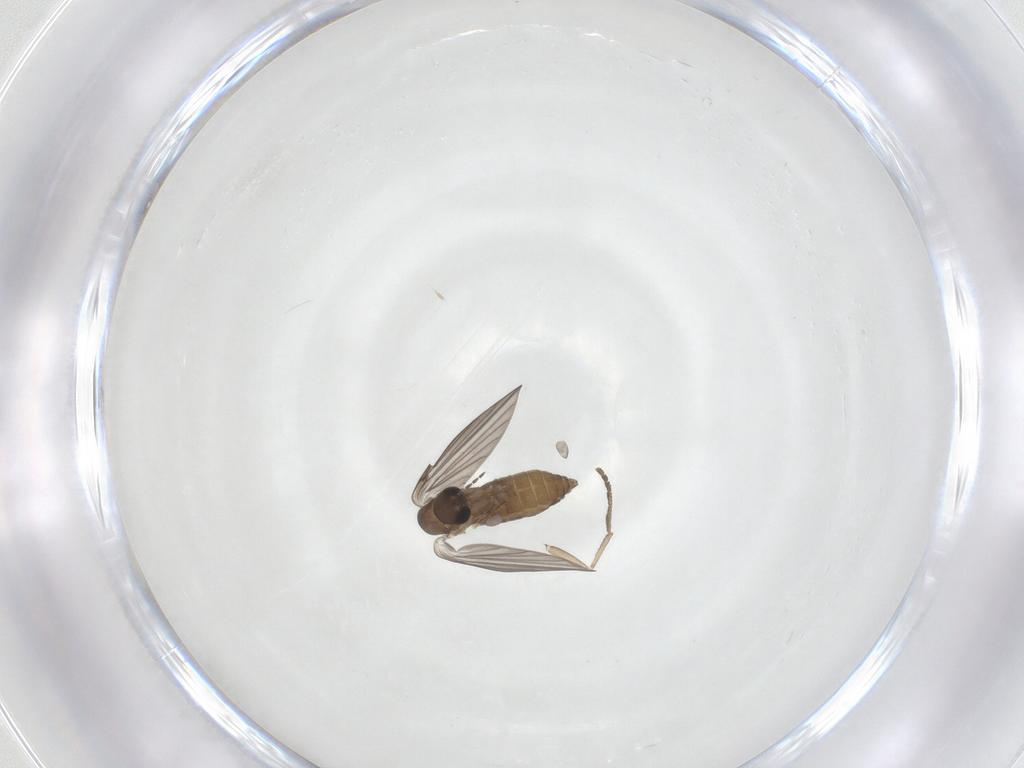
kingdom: Animalia
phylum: Arthropoda
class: Insecta
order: Diptera
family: Psychodidae
